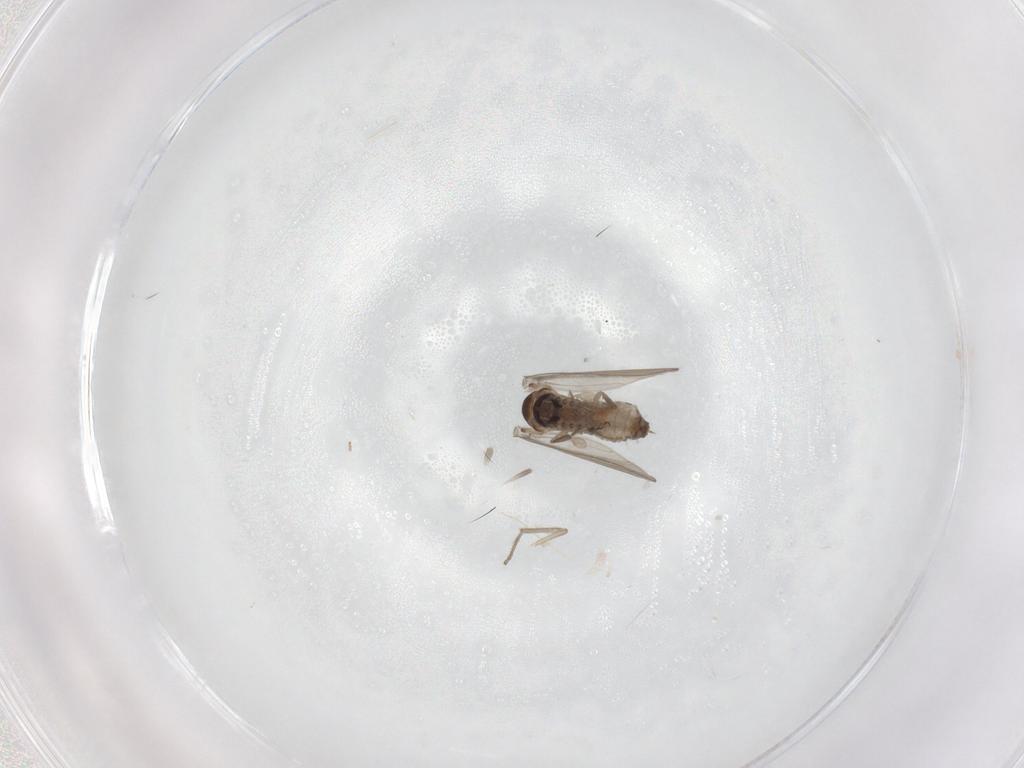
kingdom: Animalia
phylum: Arthropoda
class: Insecta
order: Diptera
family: Psychodidae
